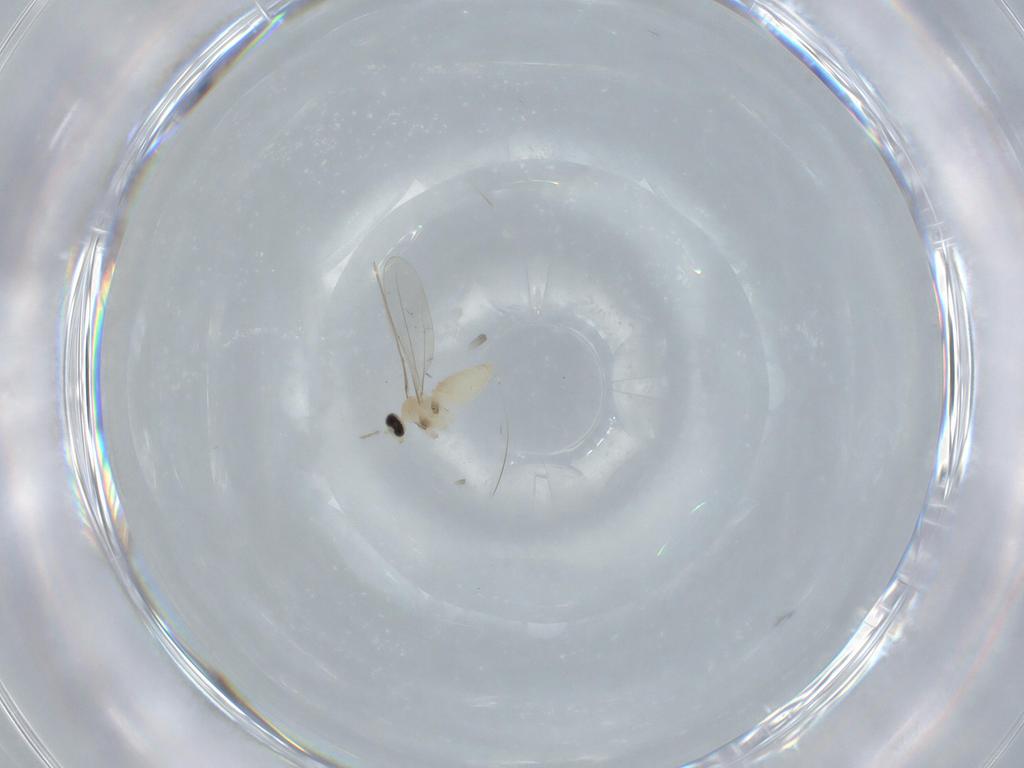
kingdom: Animalia
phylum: Arthropoda
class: Insecta
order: Diptera
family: Cecidomyiidae
